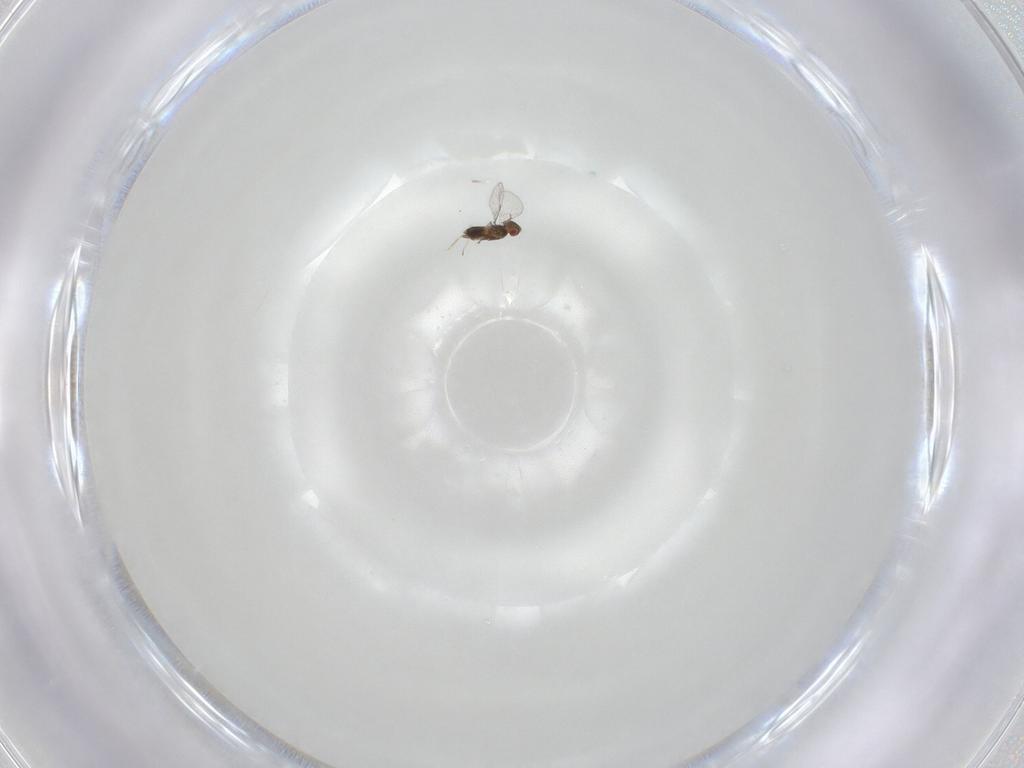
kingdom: Animalia
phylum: Arthropoda
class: Insecta
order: Hymenoptera
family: Trichogrammatidae
